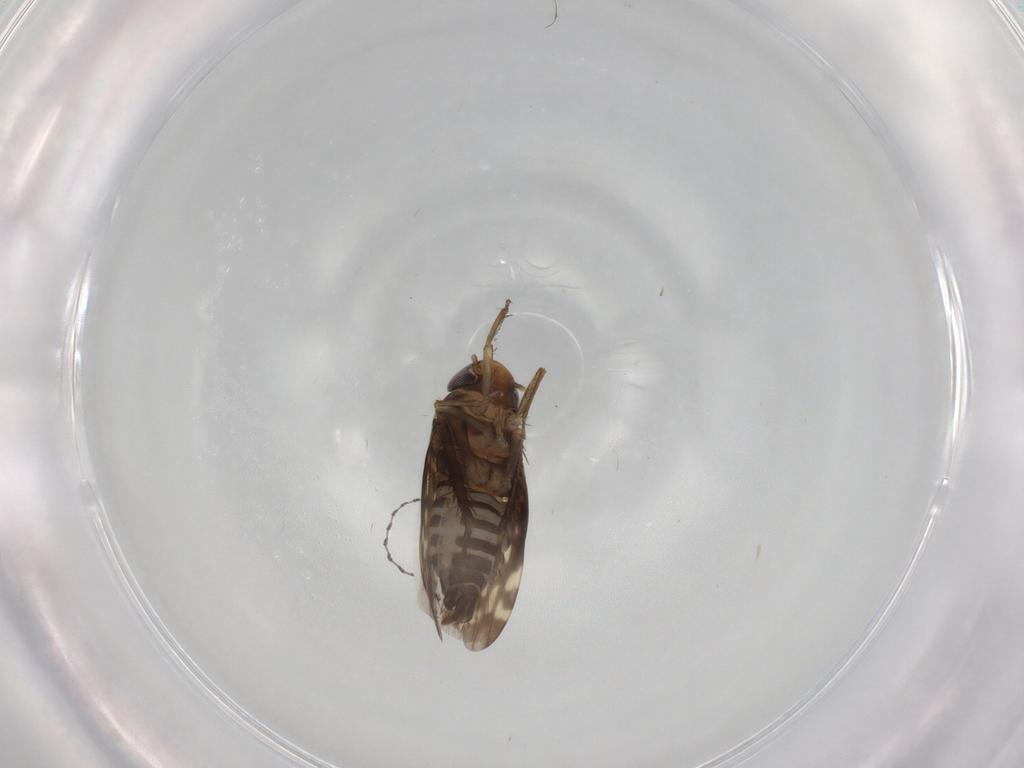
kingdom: Animalia
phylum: Arthropoda
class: Insecta
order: Hemiptera
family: Cicadellidae
